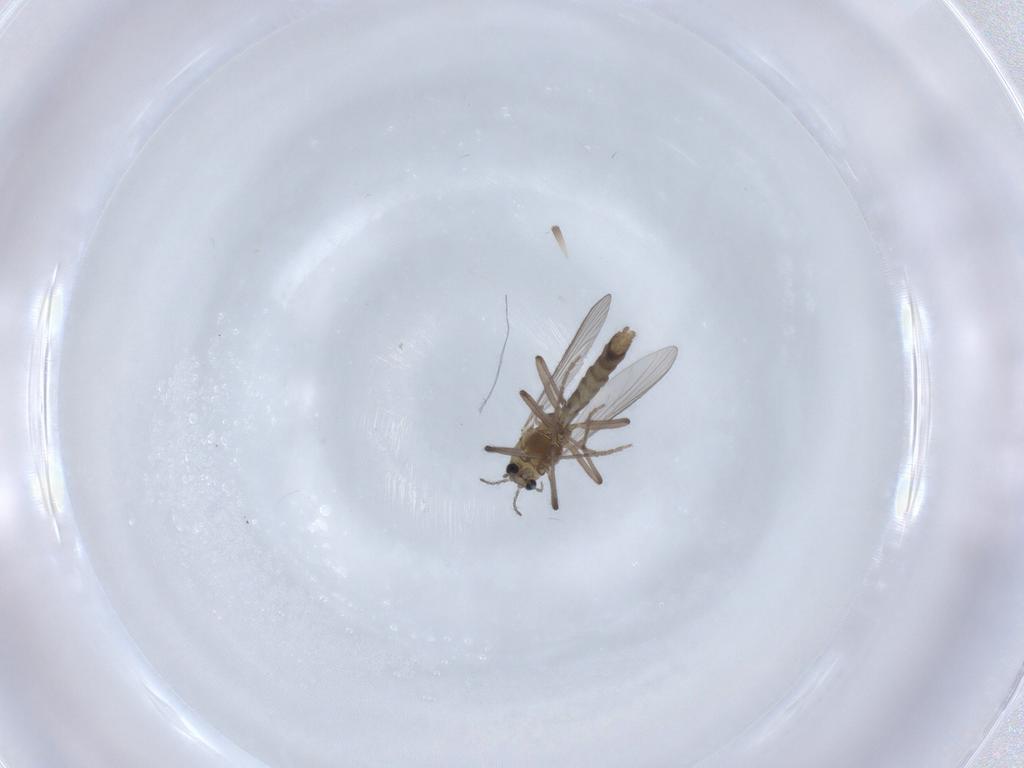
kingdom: Animalia
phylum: Arthropoda
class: Insecta
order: Diptera
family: Chironomidae
